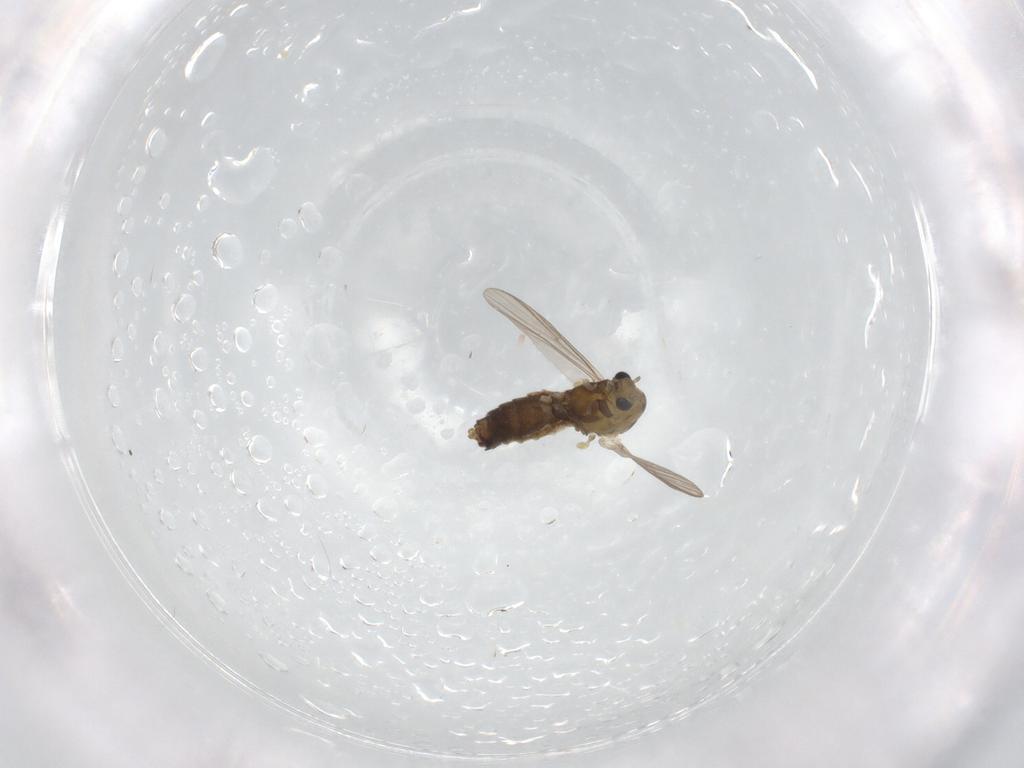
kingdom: Animalia
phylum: Arthropoda
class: Insecta
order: Diptera
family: Chironomidae
